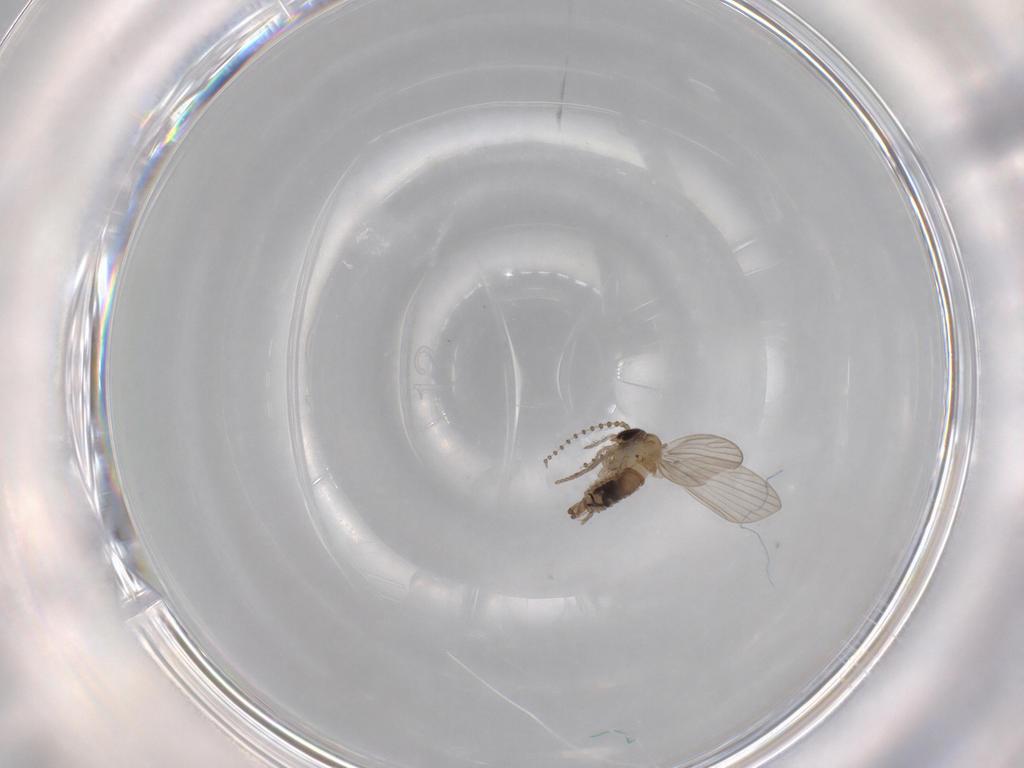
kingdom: Animalia
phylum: Arthropoda
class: Insecta
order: Diptera
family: Psychodidae
